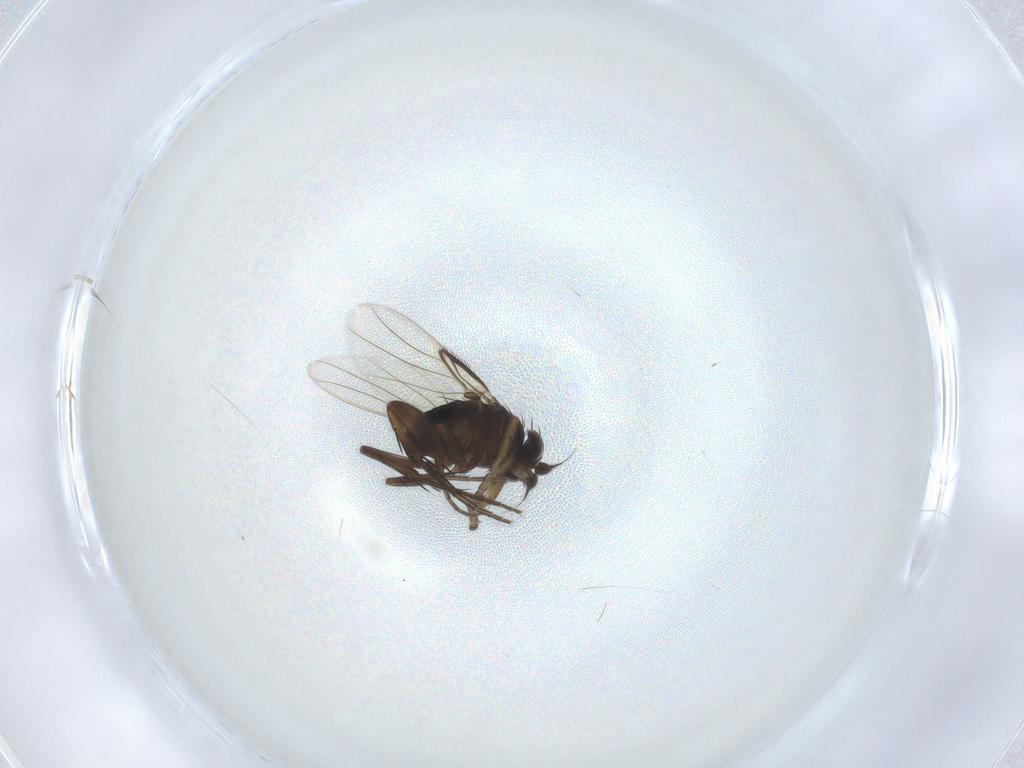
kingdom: Animalia
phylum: Arthropoda
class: Insecta
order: Diptera
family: Phoridae
